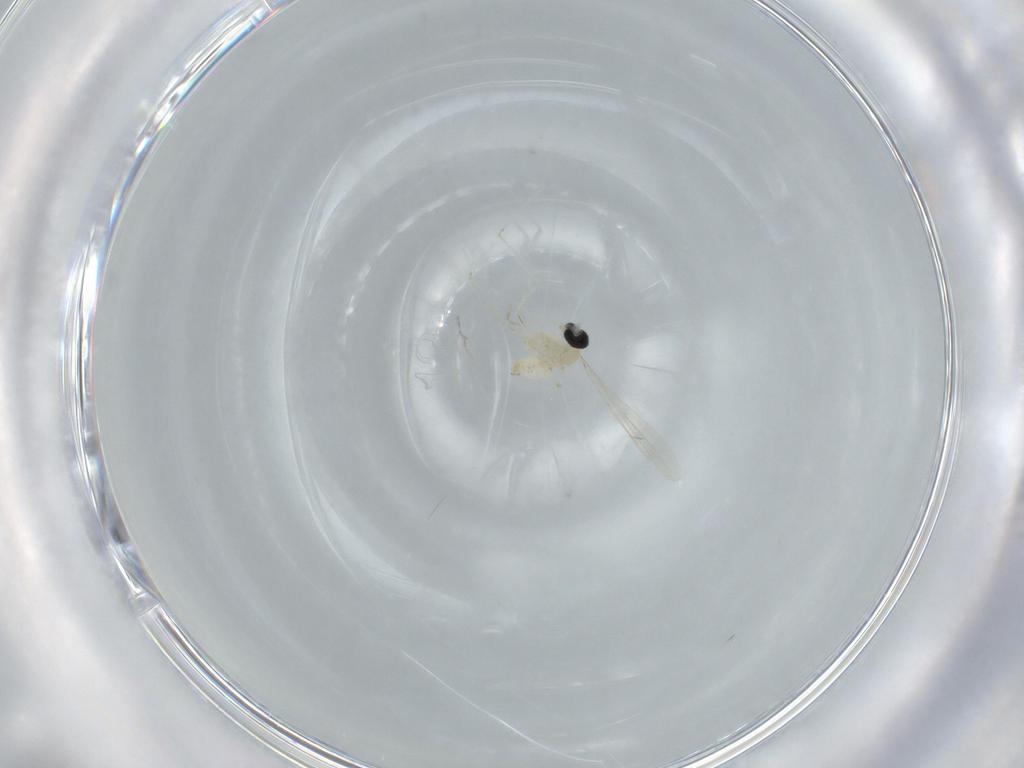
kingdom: Animalia
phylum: Arthropoda
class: Insecta
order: Diptera
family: Cecidomyiidae
